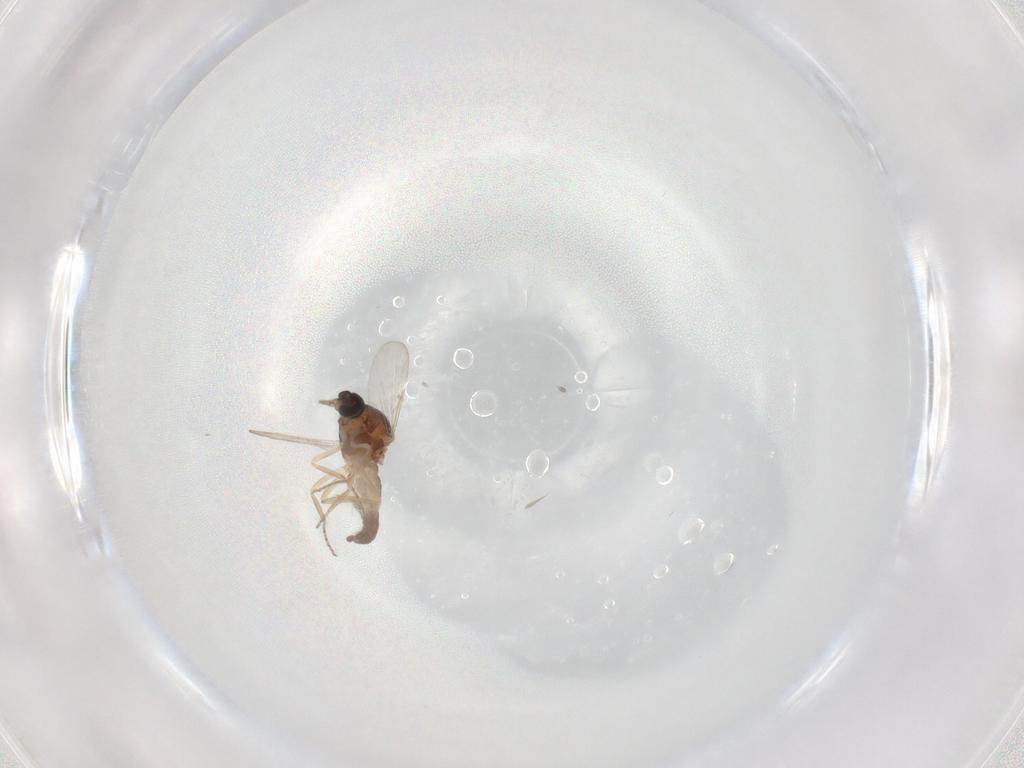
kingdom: Animalia
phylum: Arthropoda
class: Insecta
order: Diptera
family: Ceratopogonidae
